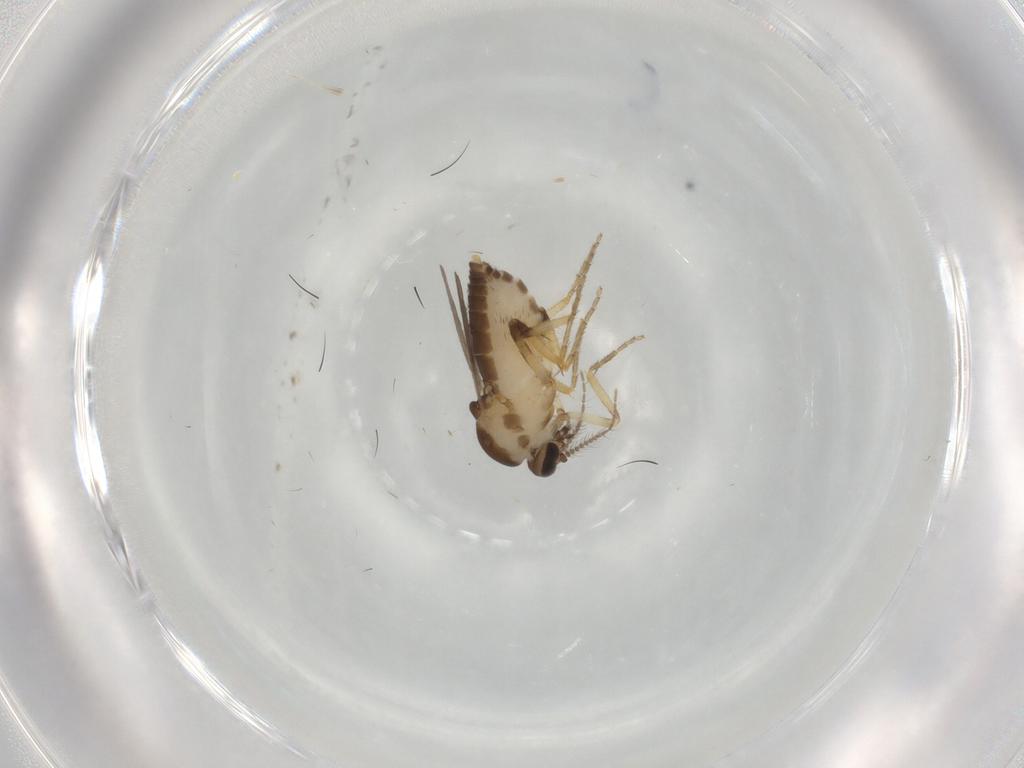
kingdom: Animalia
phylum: Arthropoda
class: Insecta
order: Diptera
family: Ceratopogonidae
